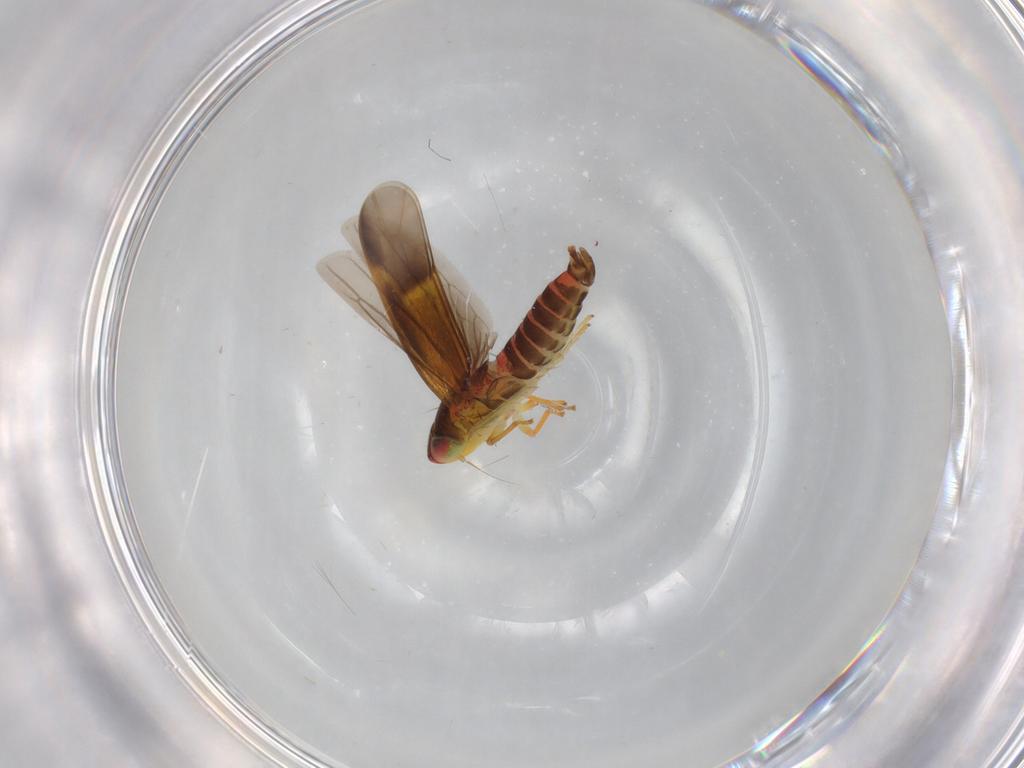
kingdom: Animalia
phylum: Arthropoda
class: Insecta
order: Hemiptera
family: Cicadellidae
